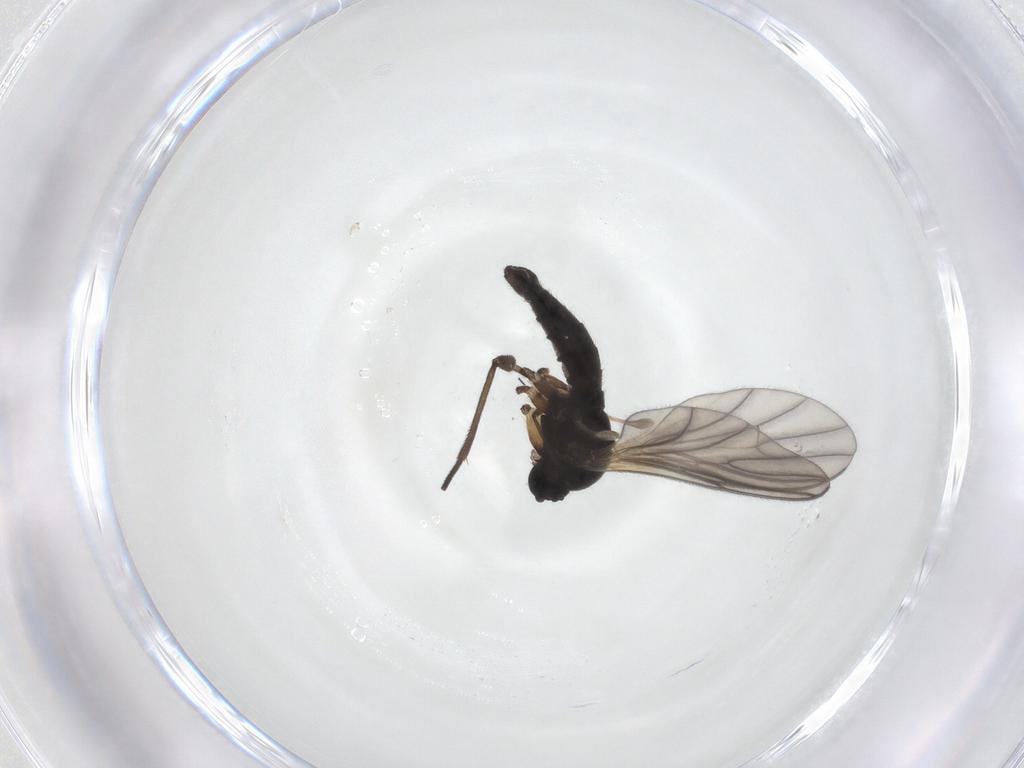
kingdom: Animalia
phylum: Arthropoda
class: Insecta
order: Diptera
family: Sciaridae
